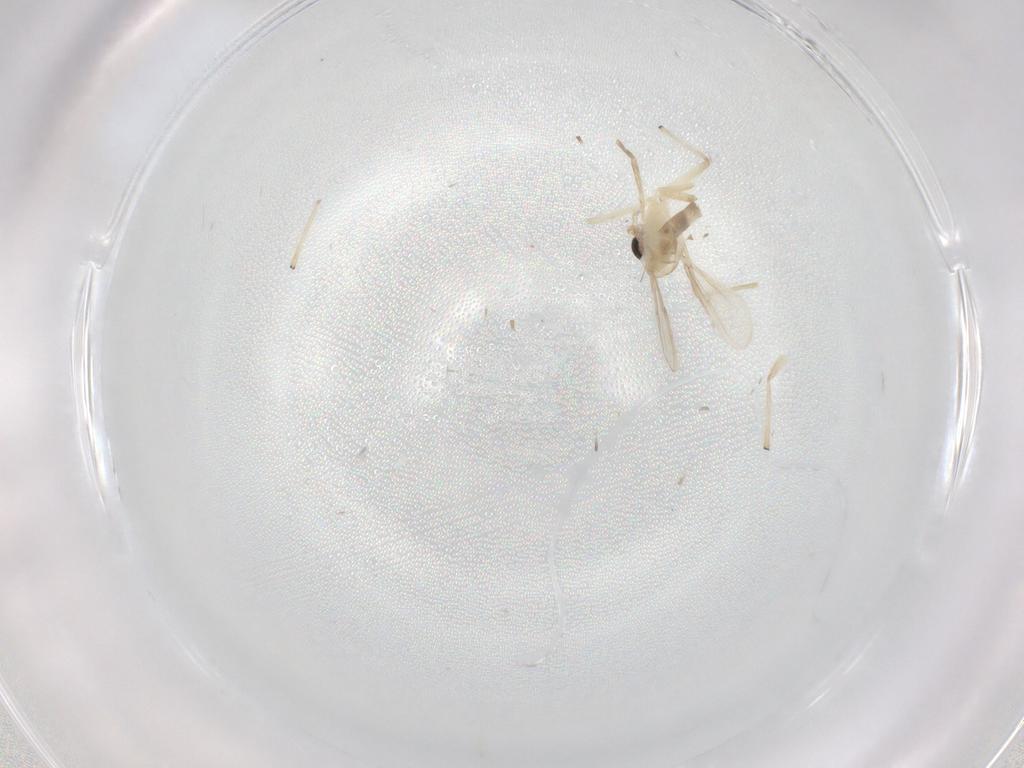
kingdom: Animalia
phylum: Arthropoda
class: Insecta
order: Diptera
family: Chironomidae
